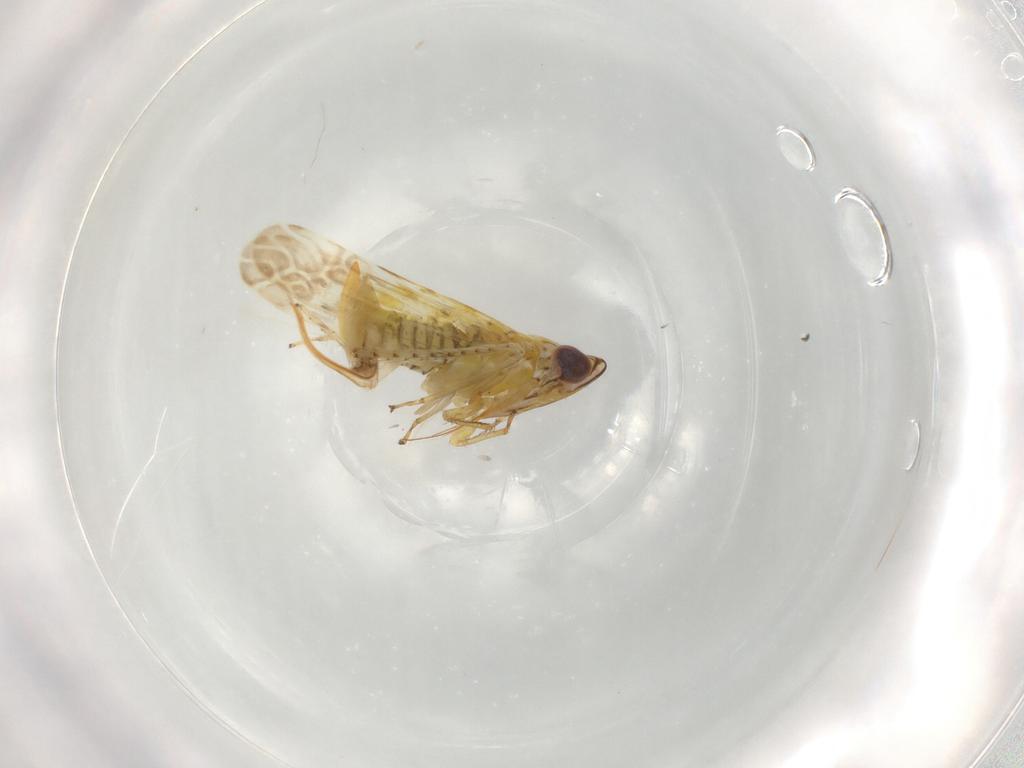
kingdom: Animalia
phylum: Arthropoda
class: Insecta
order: Hemiptera
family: Cicadellidae
